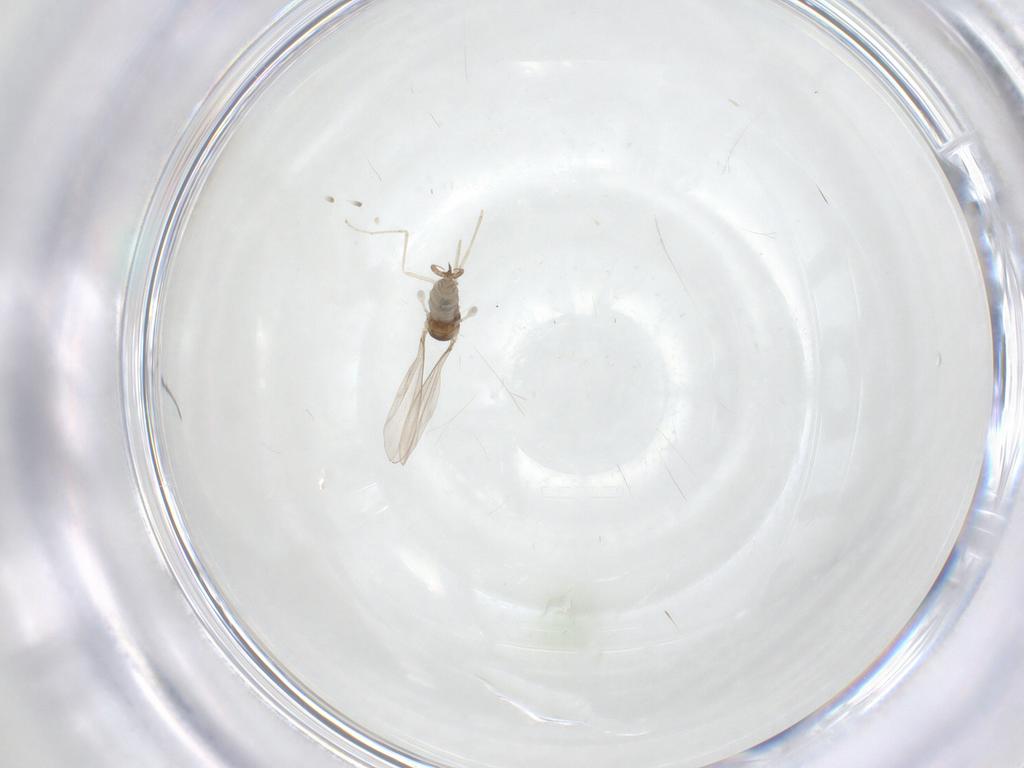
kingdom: Animalia
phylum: Arthropoda
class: Insecta
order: Diptera
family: Cecidomyiidae
